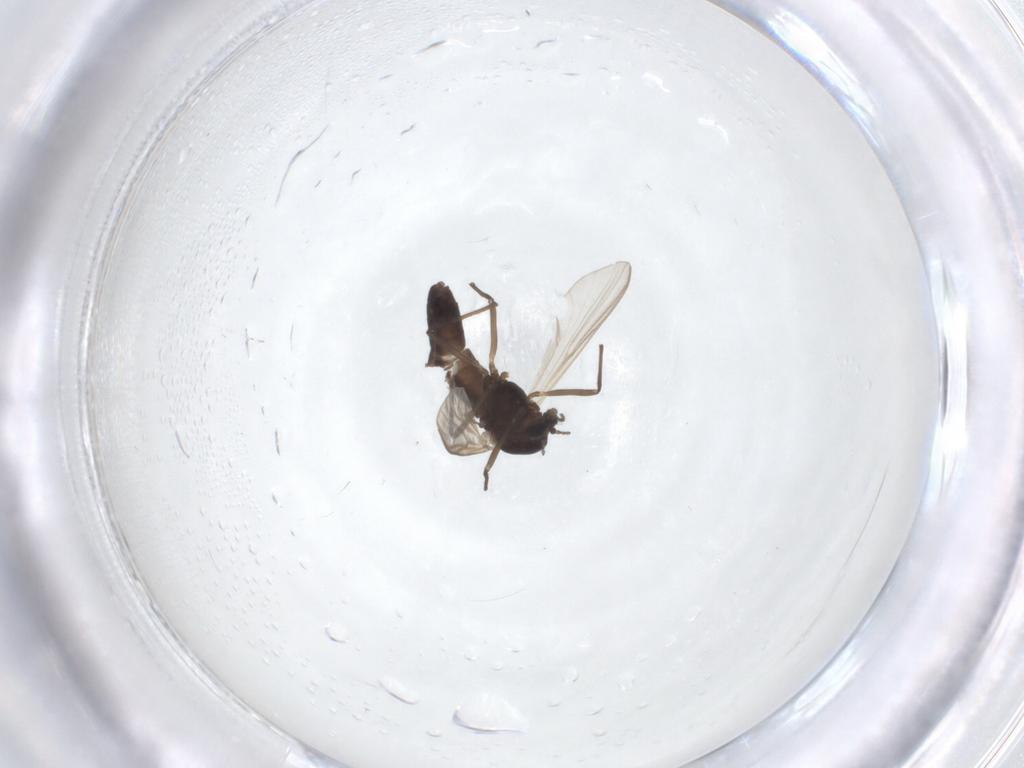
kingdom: Animalia
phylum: Arthropoda
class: Insecta
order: Diptera
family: Chironomidae
